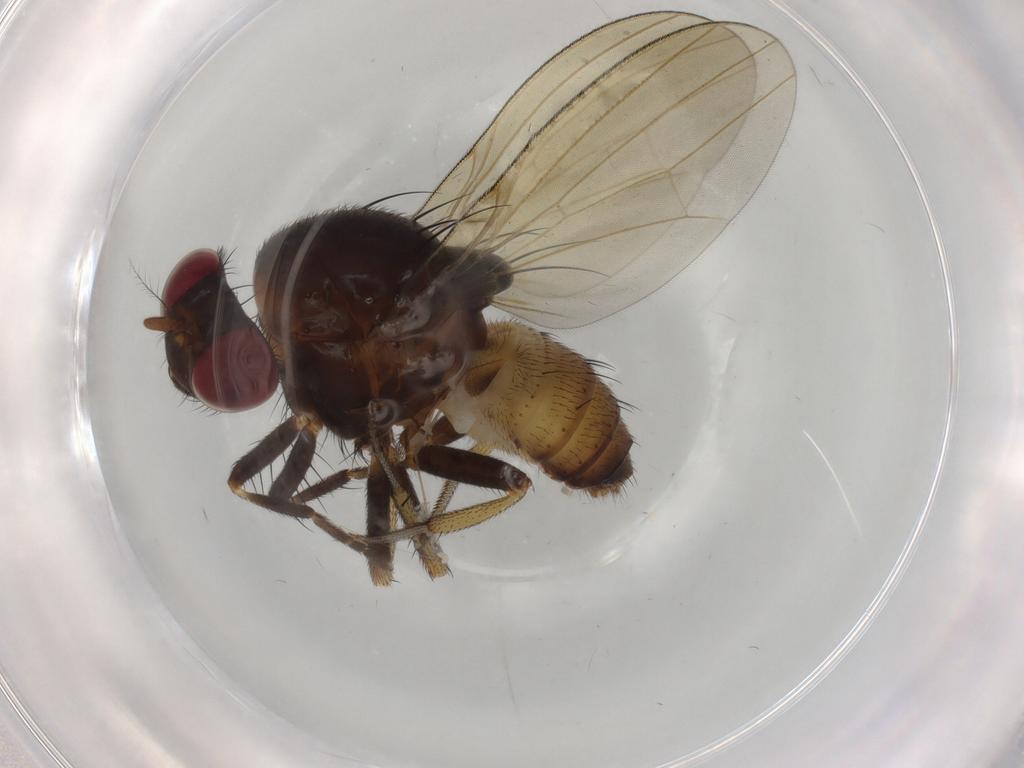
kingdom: Animalia
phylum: Arthropoda
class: Insecta
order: Diptera
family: Lauxaniidae
